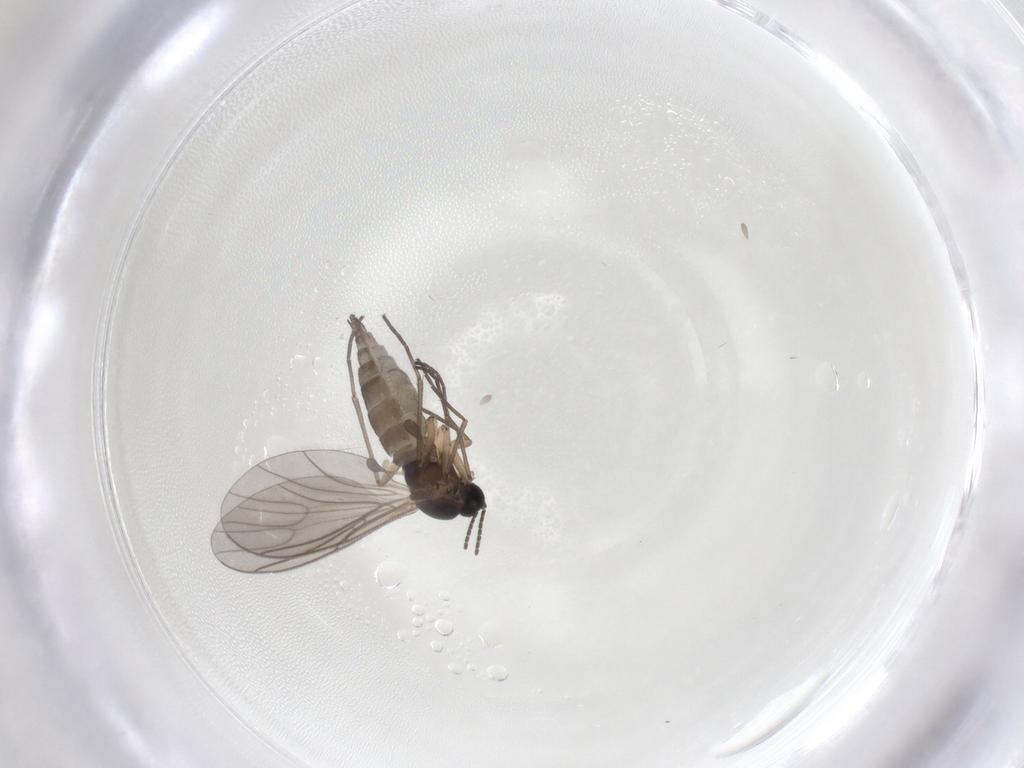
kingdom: Animalia
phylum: Arthropoda
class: Insecta
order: Diptera
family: Sciaridae
